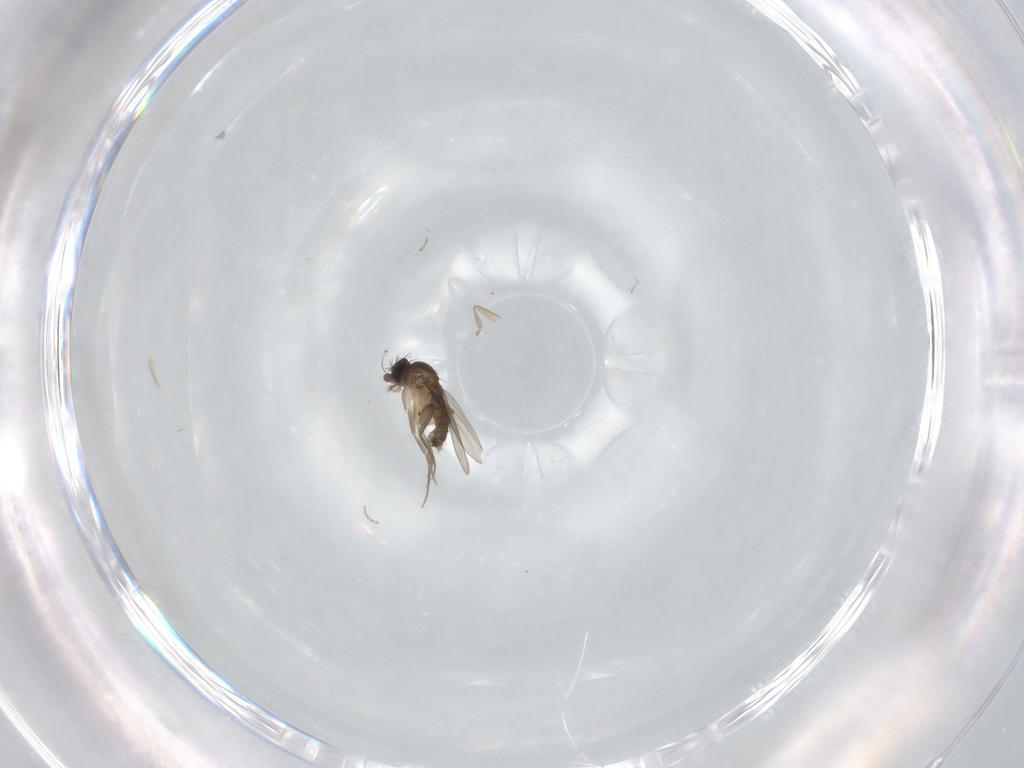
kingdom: Animalia
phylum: Arthropoda
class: Insecta
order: Diptera
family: Phoridae
